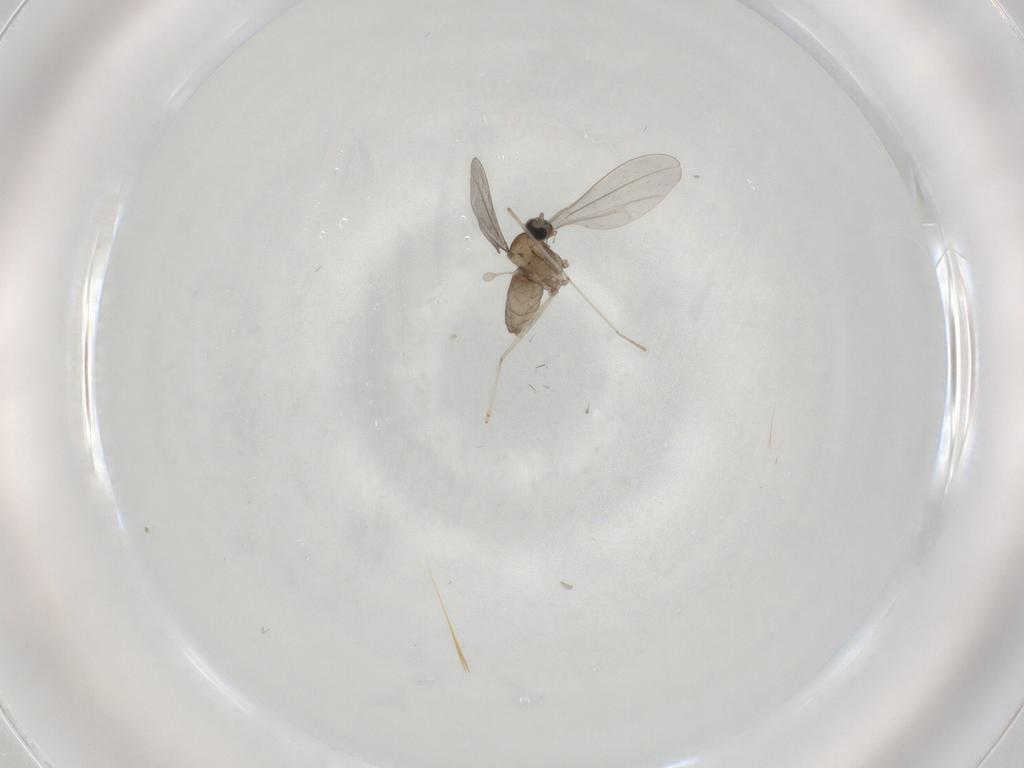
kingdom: Animalia
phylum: Arthropoda
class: Insecta
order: Diptera
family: Cecidomyiidae
